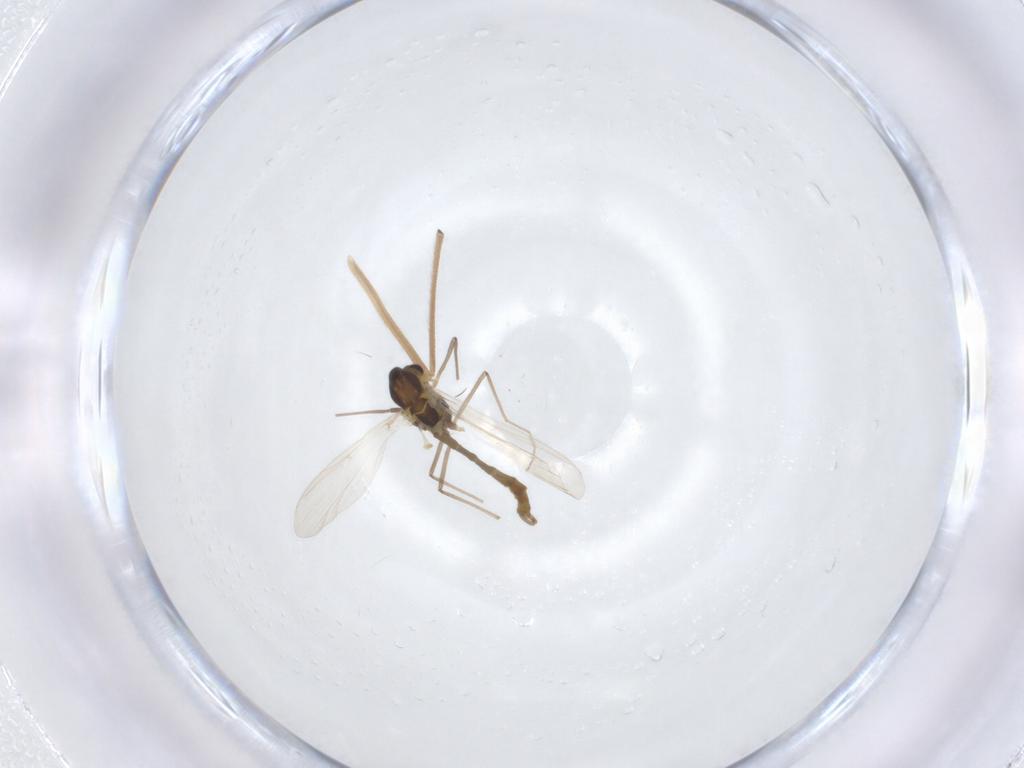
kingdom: Animalia
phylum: Arthropoda
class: Insecta
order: Diptera
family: Chironomidae
